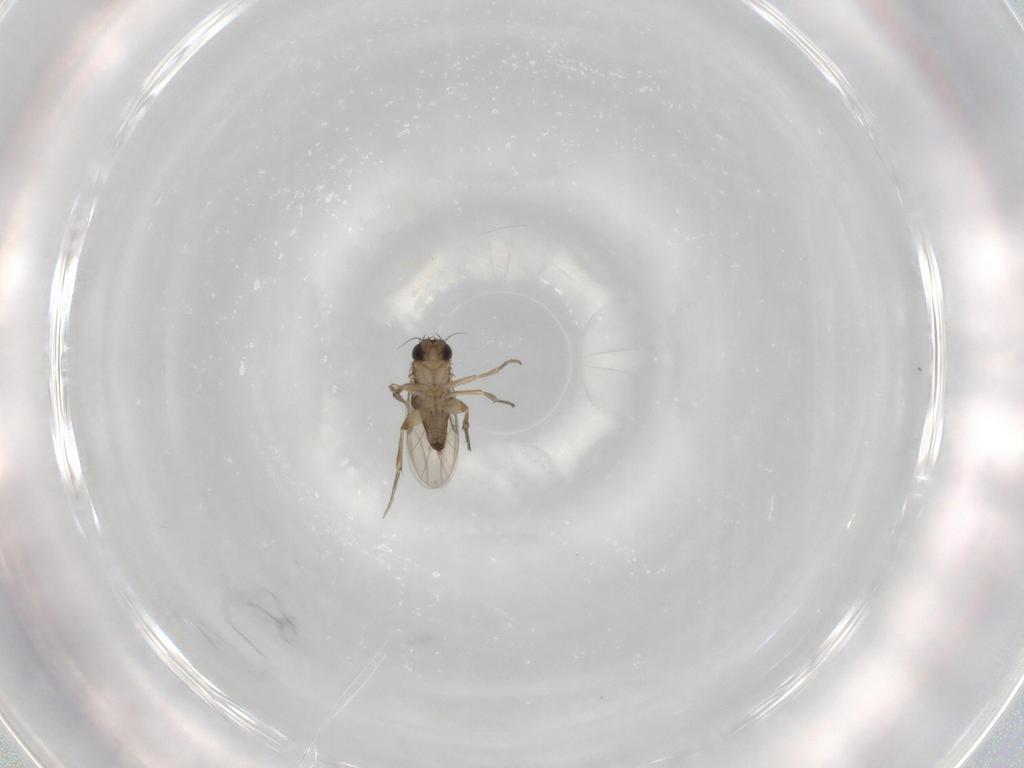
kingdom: Animalia
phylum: Arthropoda
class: Insecta
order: Diptera
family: Phoridae
